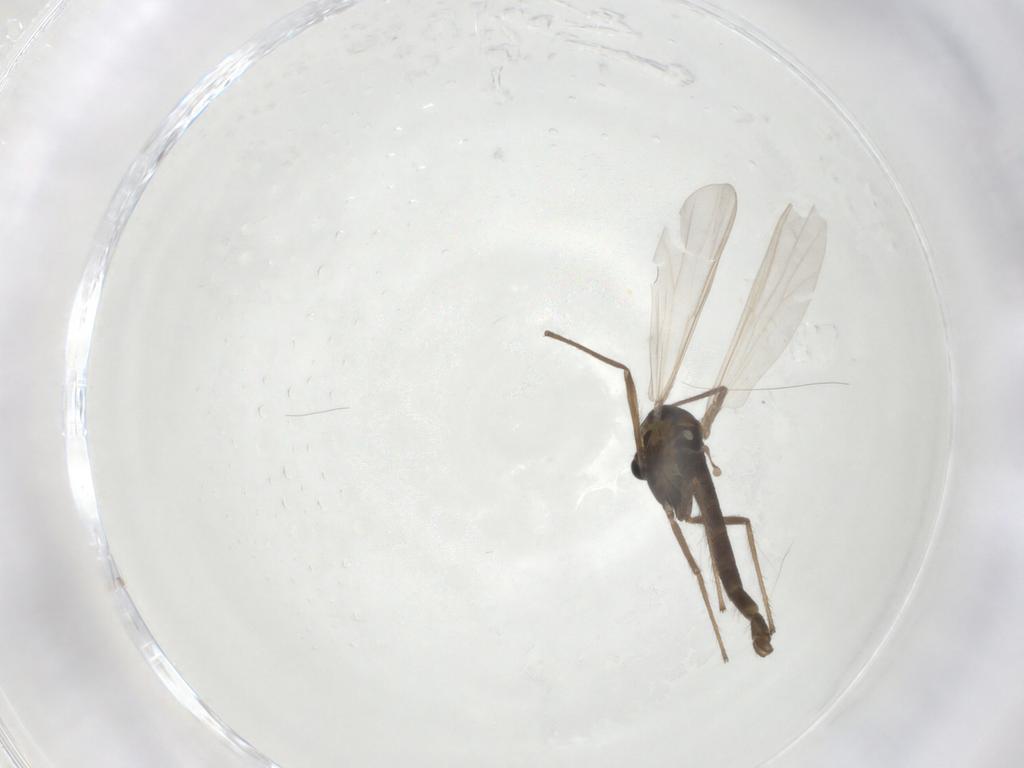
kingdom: Animalia
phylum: Arthropoda
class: Insecta
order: Diptera
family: Chironomidae
